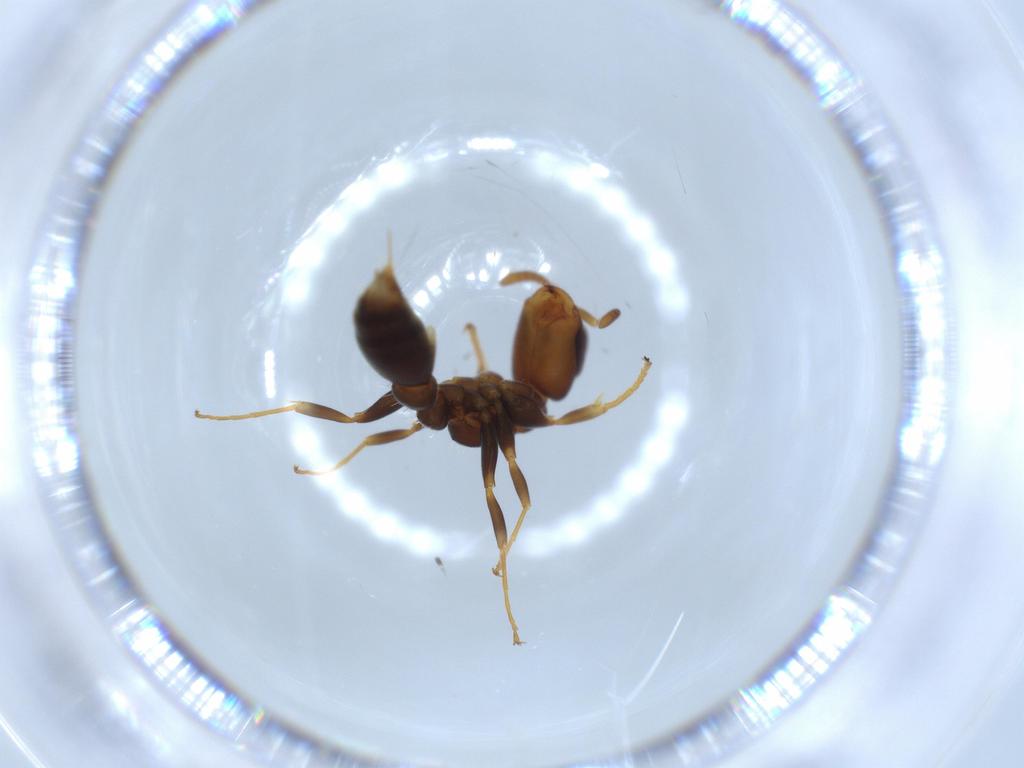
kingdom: Animalia
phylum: Arthropoda
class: Insecta
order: Hymenoptera
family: Formicidae
